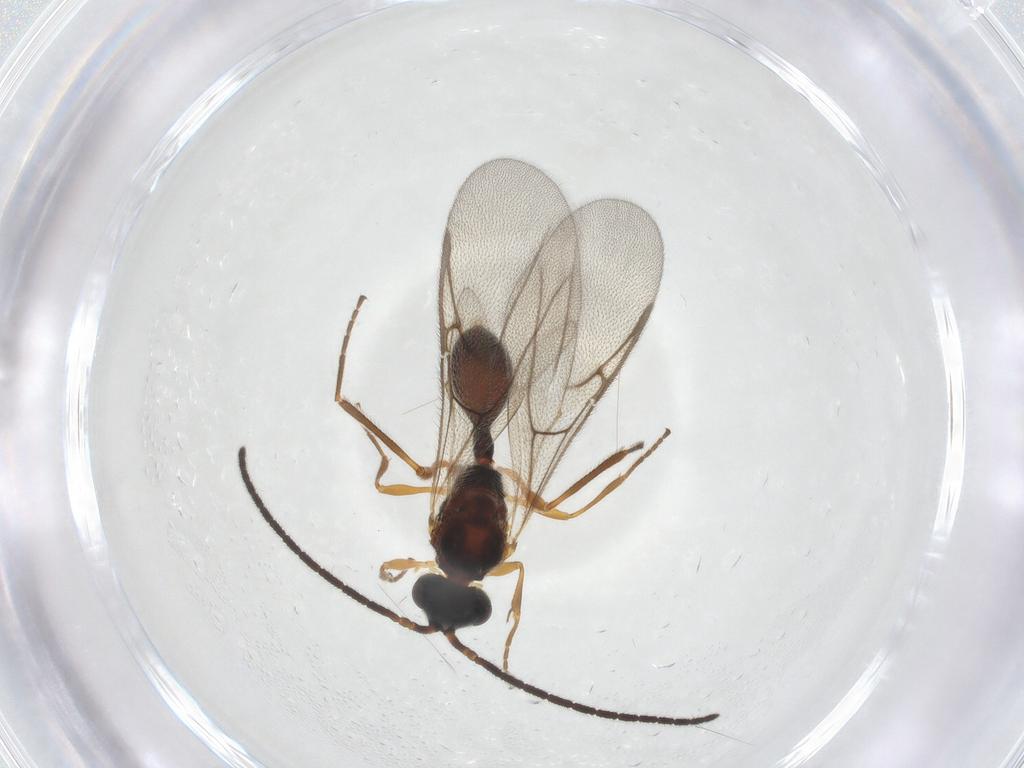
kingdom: Animalia
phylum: Arthropoda
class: Insecta
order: Hymenoptera
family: Diapriidae
